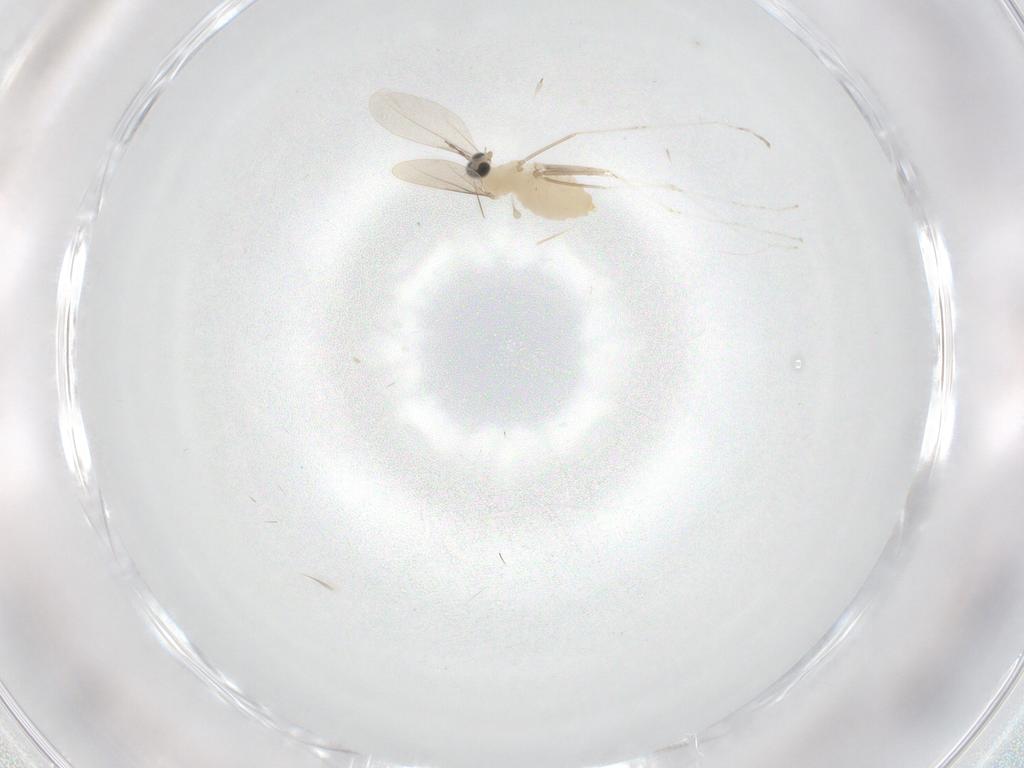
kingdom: Animalia
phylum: Arthropoda
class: Insecta
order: Diptera
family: Cecidomyiidae
